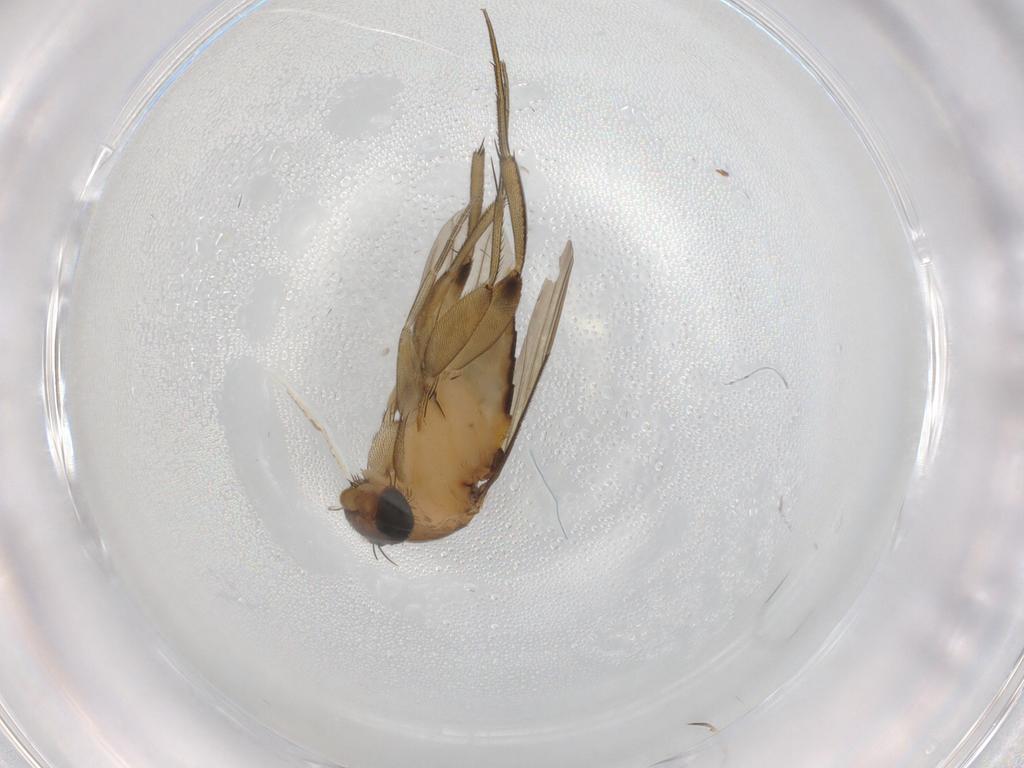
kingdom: Animalia
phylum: Arthropoda
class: Insecta
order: Diptera
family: Phoridae
